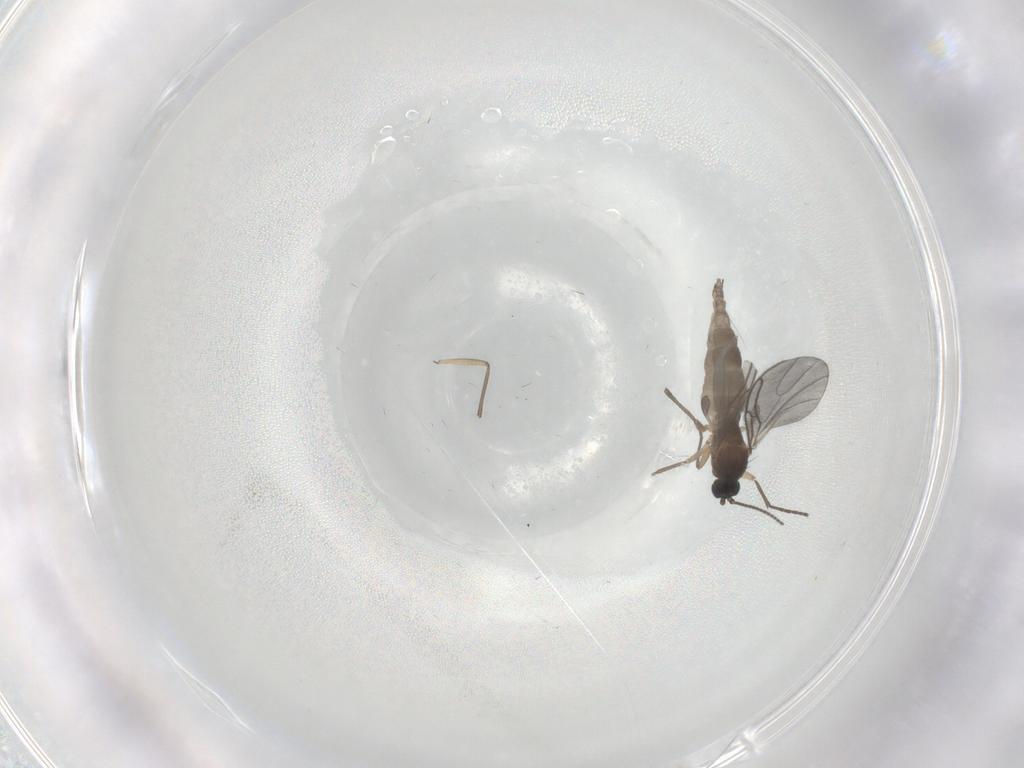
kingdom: Animalia
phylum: Arthropoda
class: Insecta
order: Diptera
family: Sciaridae
